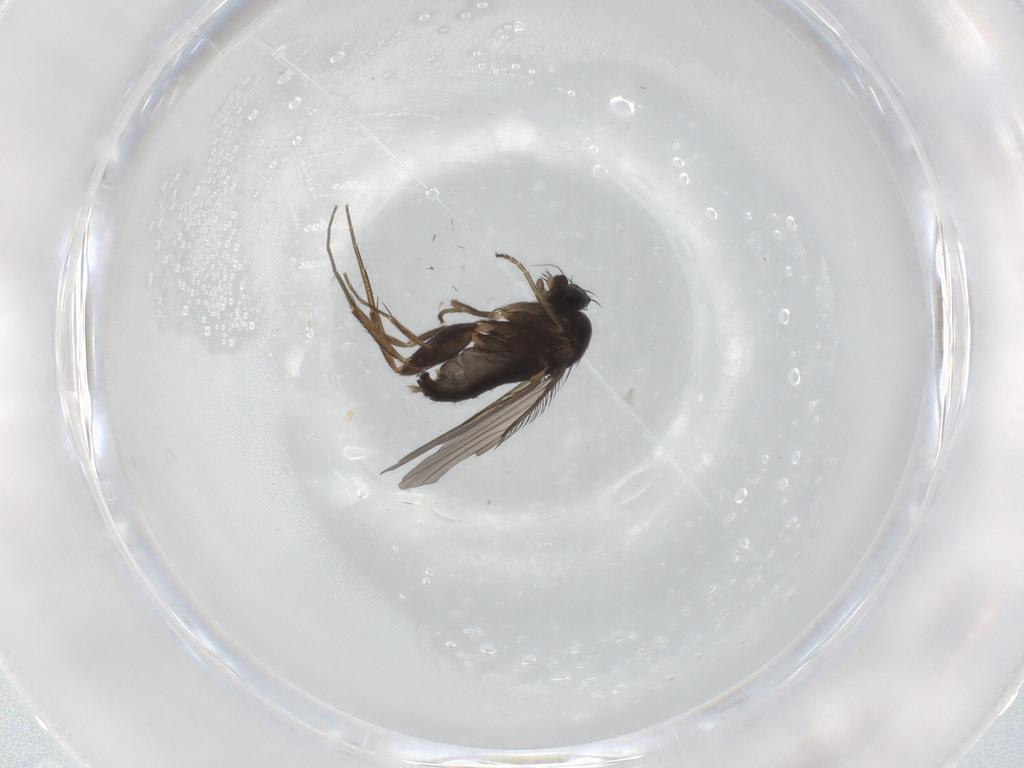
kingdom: Animalia
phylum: Arthropoda
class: Insecta
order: Diptera
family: Phoridae
